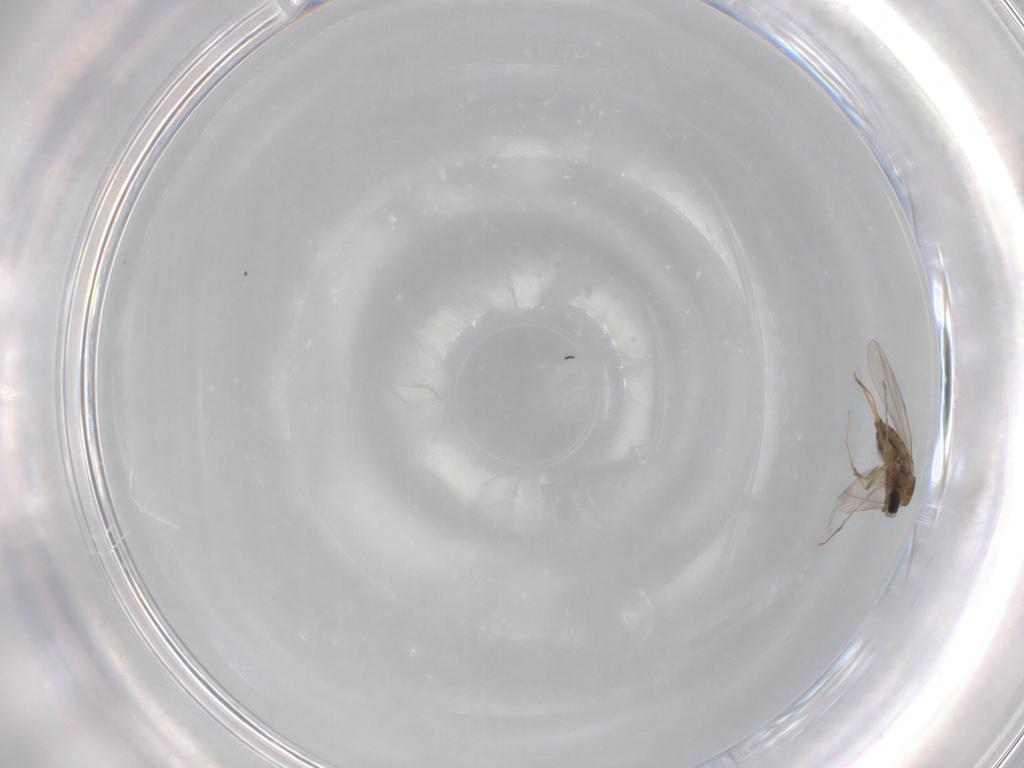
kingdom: Animalia
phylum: Arthropoda
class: Insecta
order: Diptera
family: Cecidomyiidae
